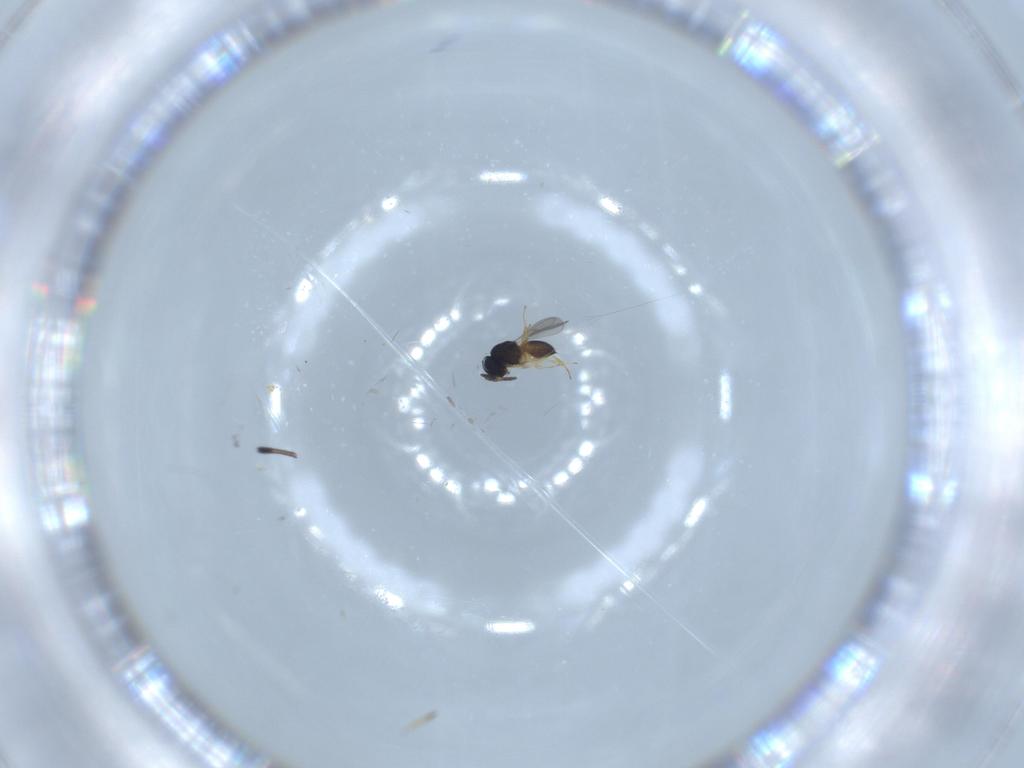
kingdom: Animalia
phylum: Arthropoda
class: Insecta
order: Hymenoptera
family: Scelionidae
